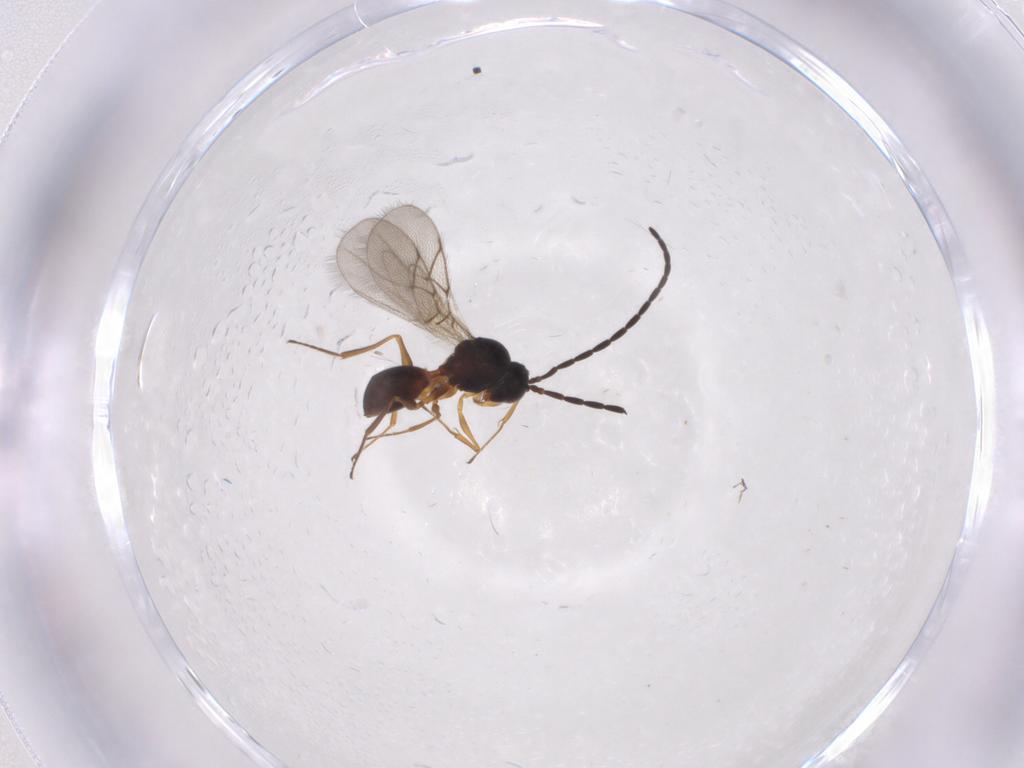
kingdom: Animalia
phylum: Arthropoda
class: Insecta
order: Hymenoptera
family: Figitidae
